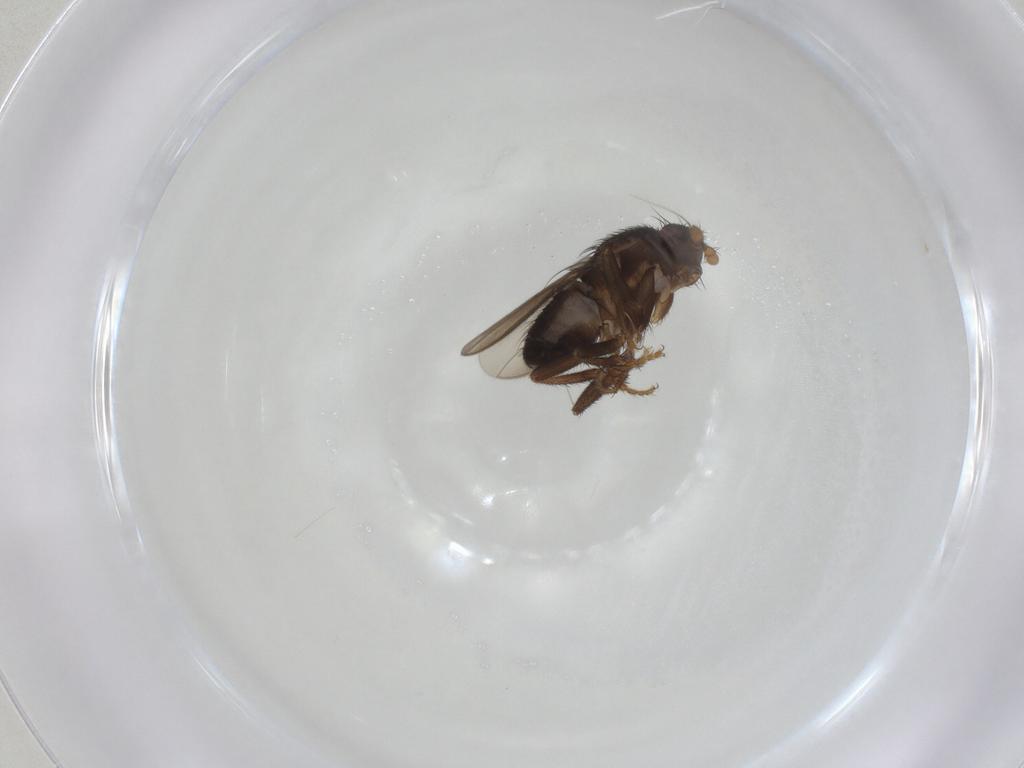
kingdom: Animalia
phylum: Arthropoda
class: Insecta
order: Diptera
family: Sphaeroceridae
